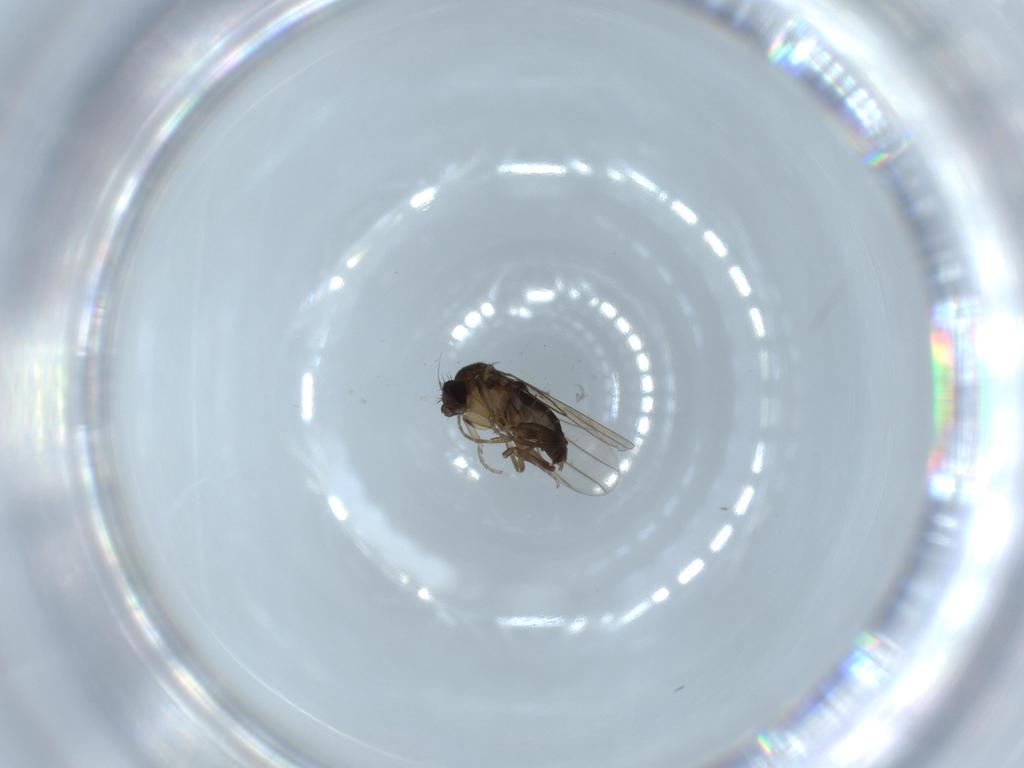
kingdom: Animalia
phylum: Arthropoda
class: Insecta
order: Diptera
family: Phoridae
